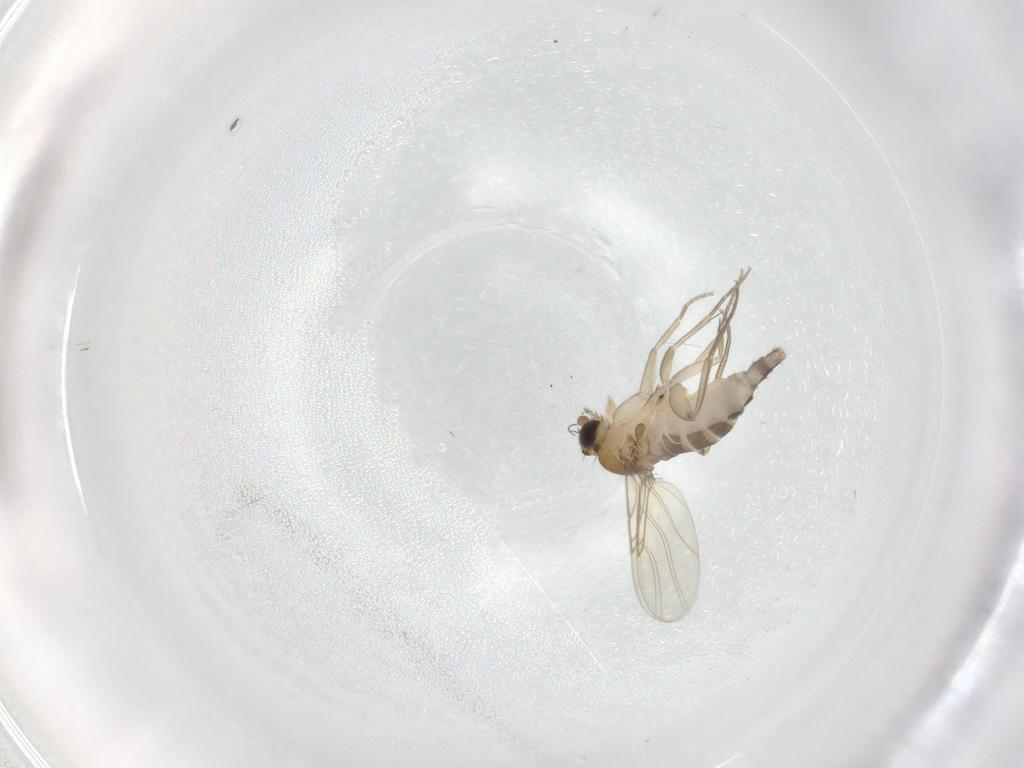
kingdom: Animalia
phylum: Arthropoda
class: Insecta
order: Diptera
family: Phoridae
